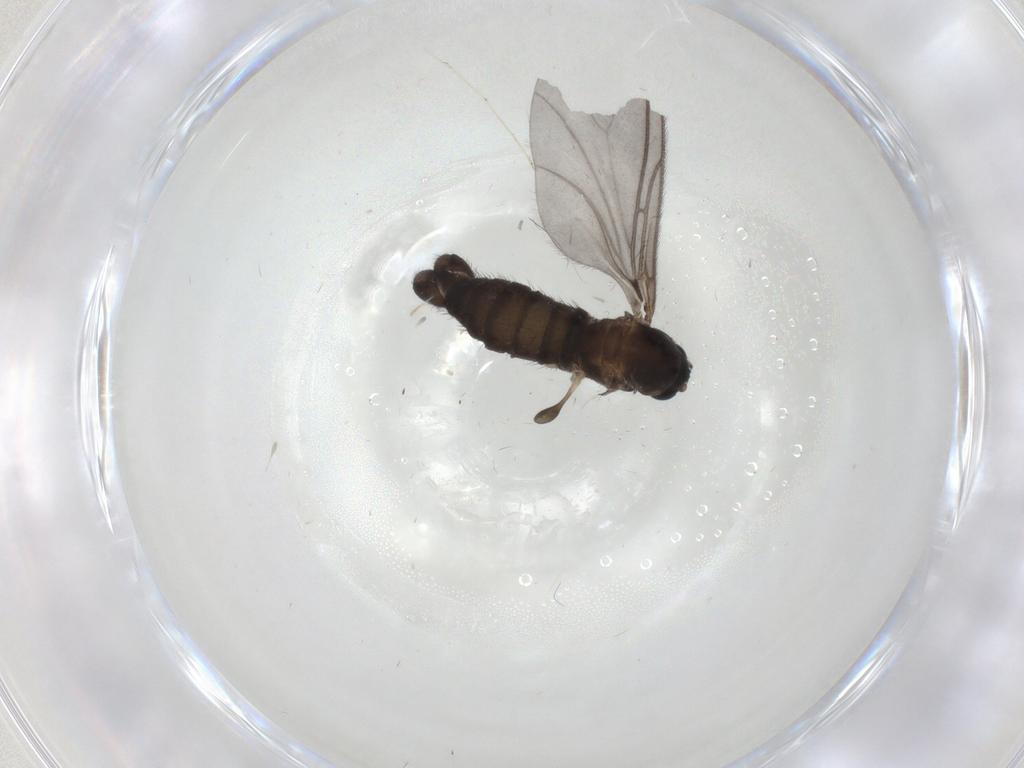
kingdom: Animalia
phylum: Arthropoda
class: Insecta
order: Diptera
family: Sciaridae
